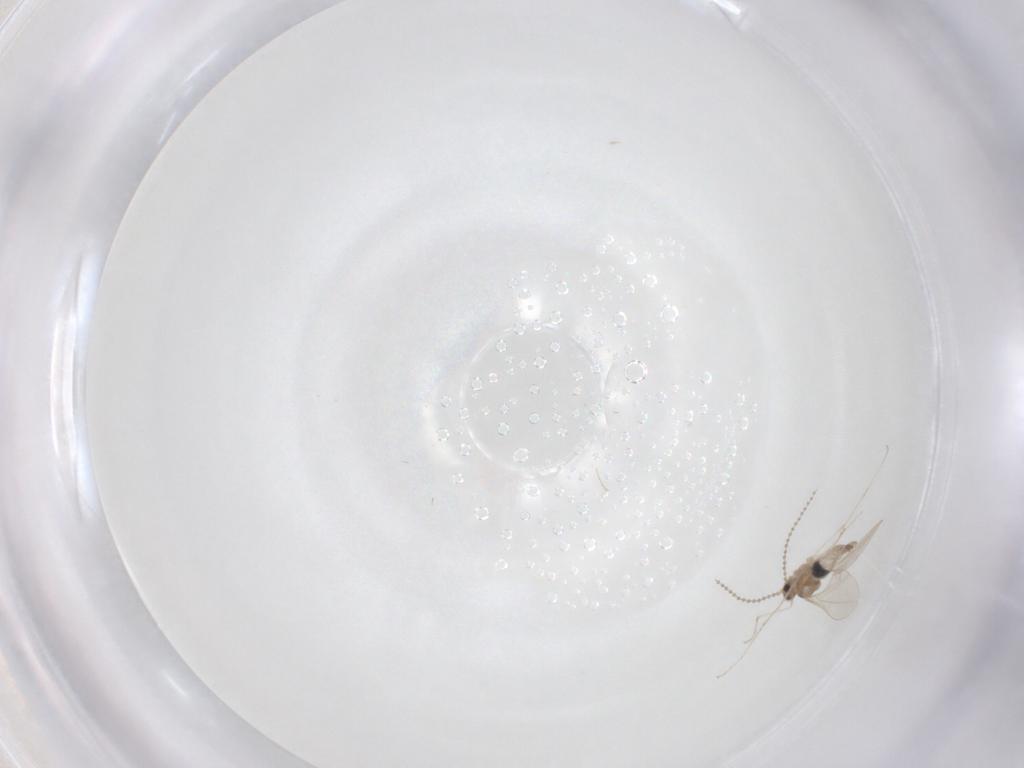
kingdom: Animalia
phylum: Arthropoda
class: Insecta
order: Diptera
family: Cecidomyiidae
